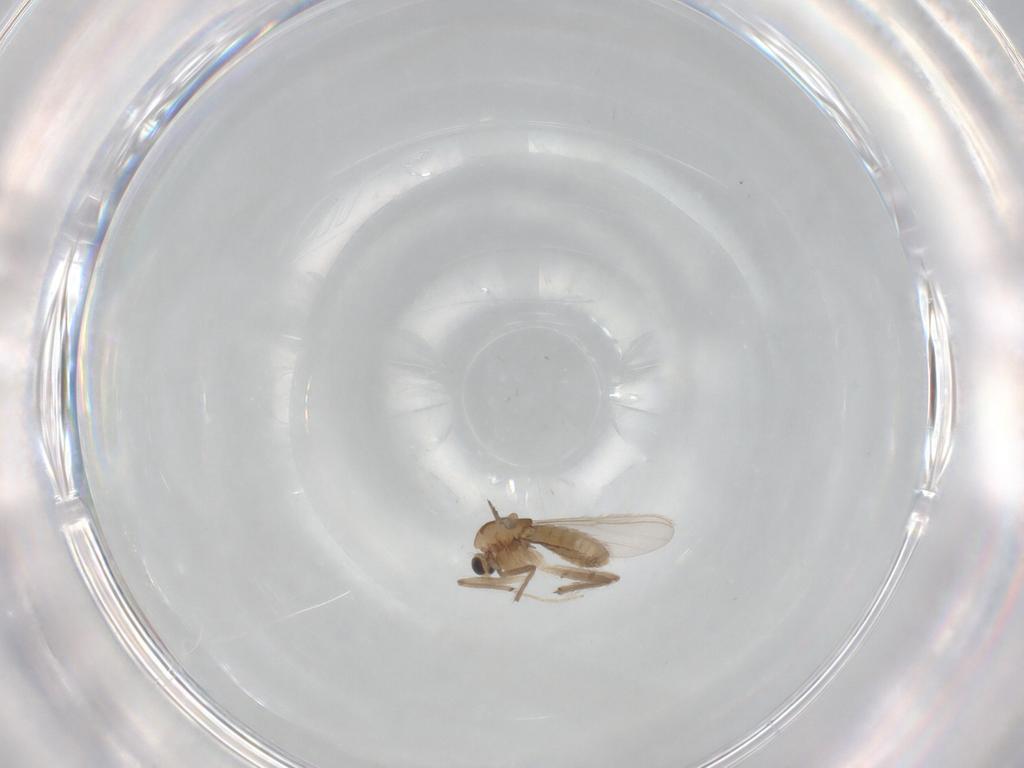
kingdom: Animalia
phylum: Arthropoda
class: Insecta
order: Diptera
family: Chironomidae
